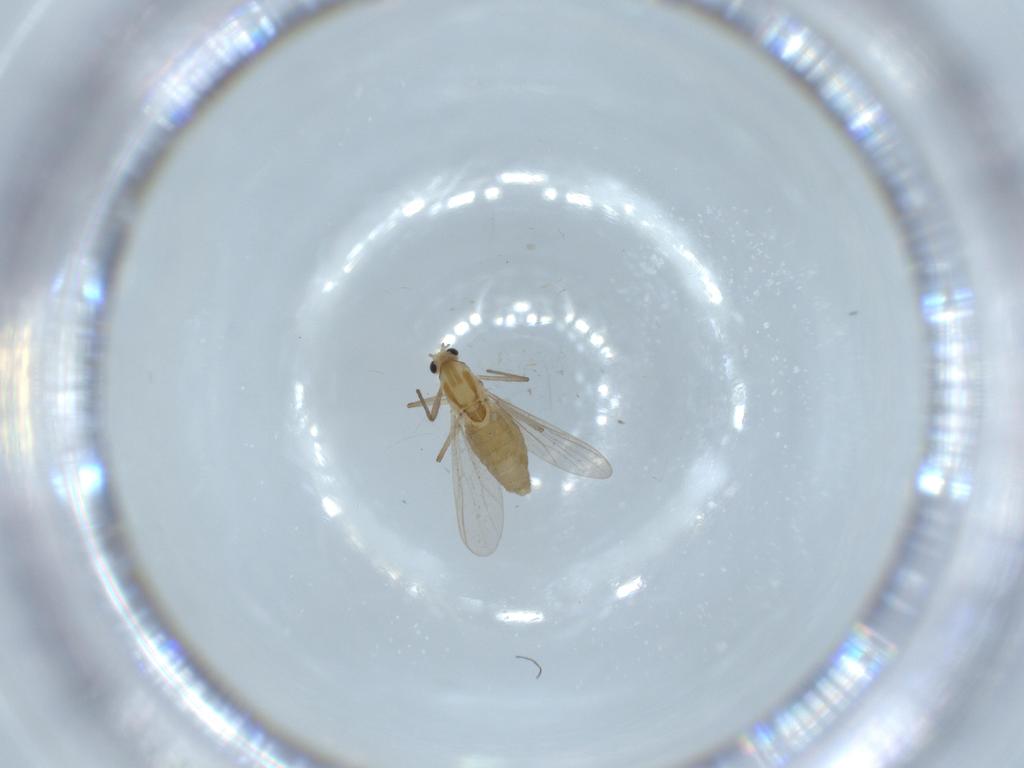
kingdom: Animalia
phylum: Arthropoda
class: Insecta
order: Diptera
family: Chironomidae
